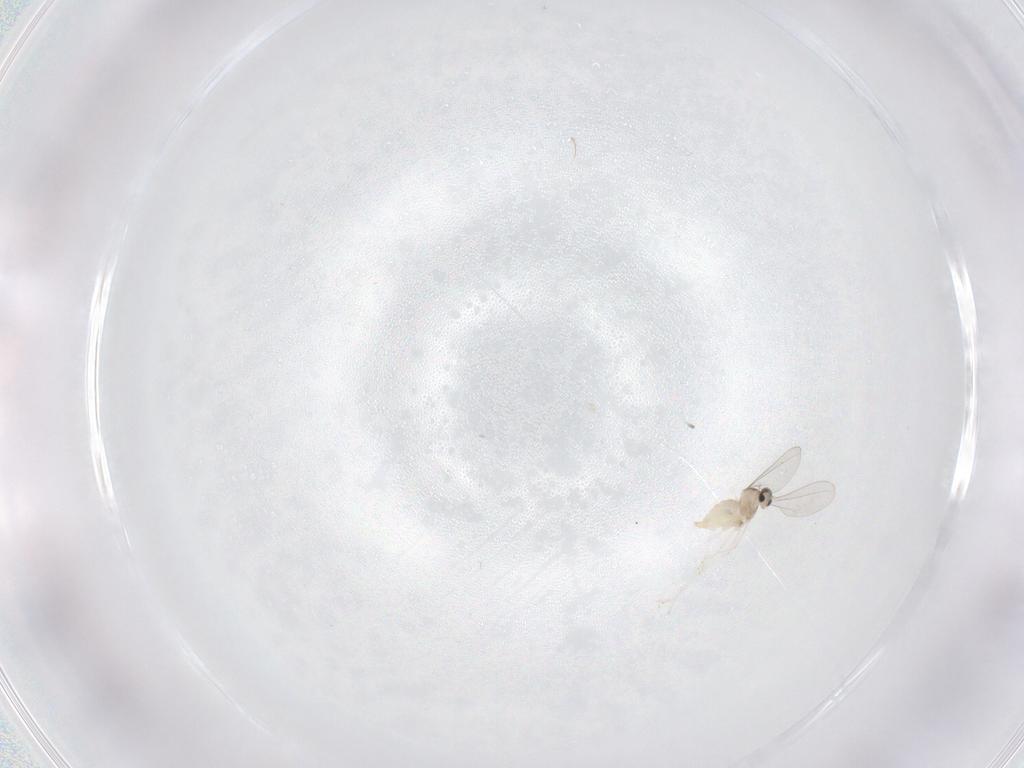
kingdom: Animalia
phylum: Arthropoda
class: Insecta
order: Diptera
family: Cecidomyiidae
